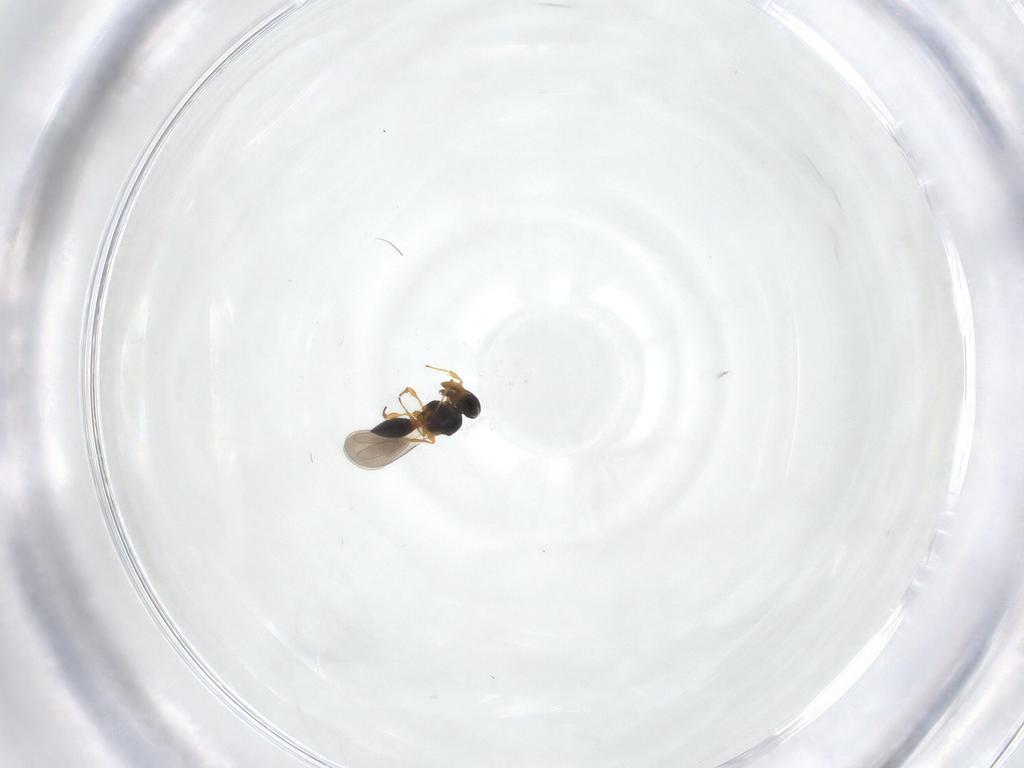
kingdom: Animalia
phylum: Arthropoda
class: Insecta
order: Hymenoptera
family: Platygastridae
